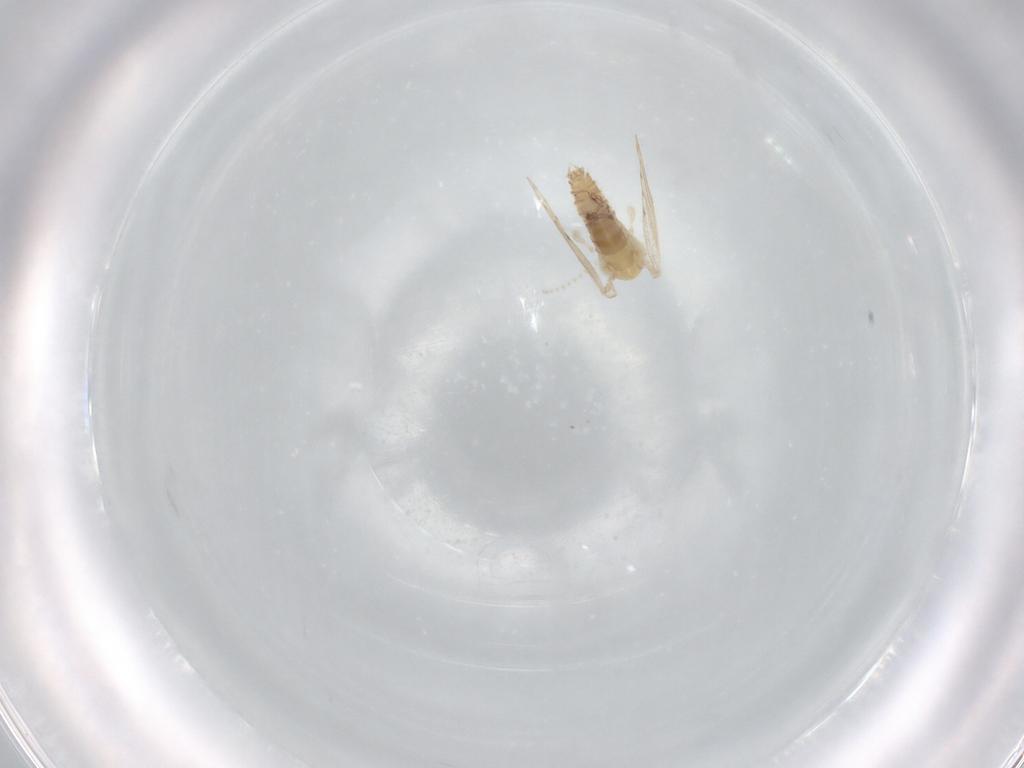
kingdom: Animalia
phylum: Arthropoda
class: Insecta
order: Diptera
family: Psychodidae
